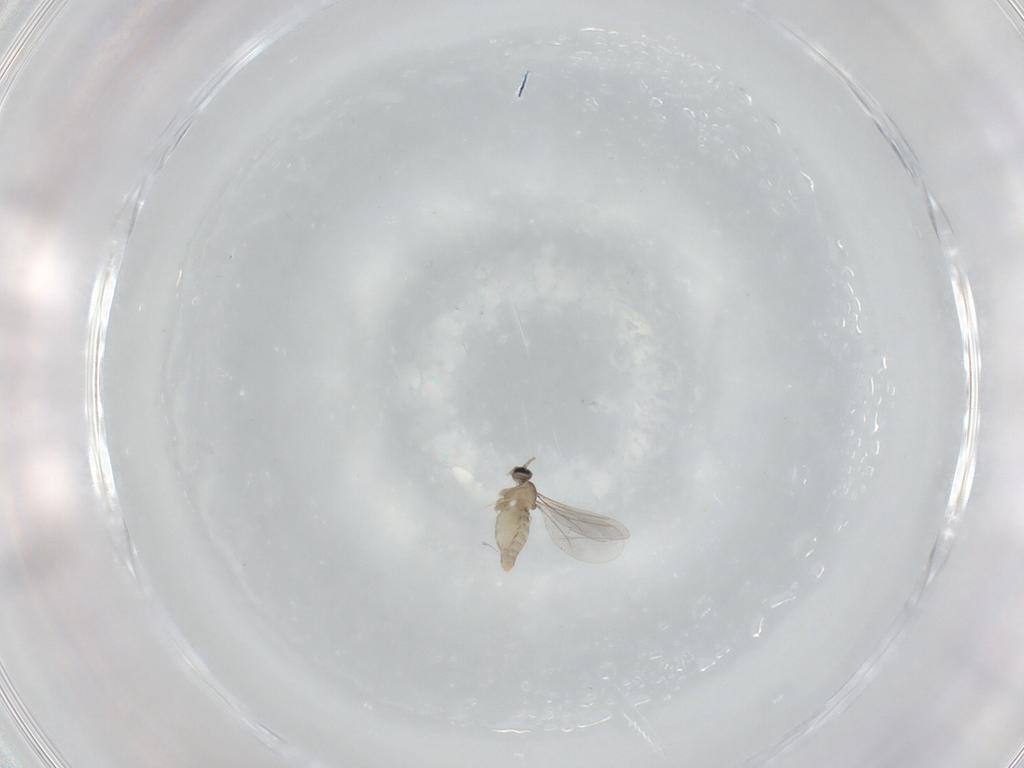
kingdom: Animalia
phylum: Arthropoda
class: Insecta
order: Diptera
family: Cecidomyiidae
